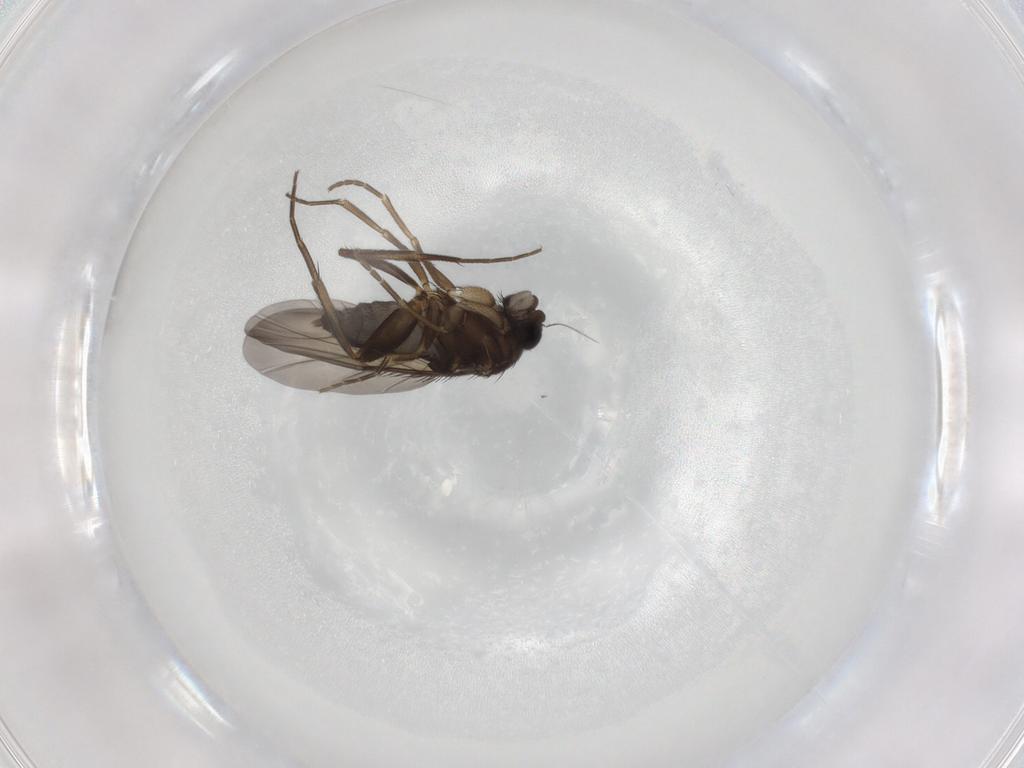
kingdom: Animalia
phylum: Arthropoda
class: Insecta
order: Diptera
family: Phoridae
